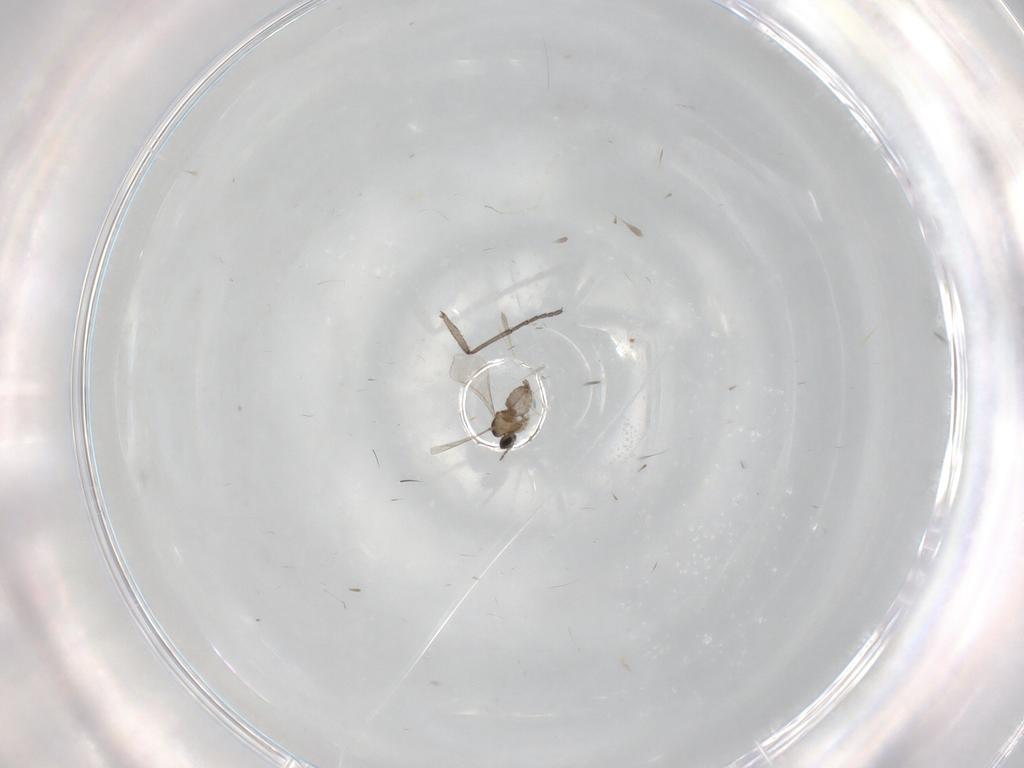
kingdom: Animalia
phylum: Arthropoda
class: Insecta
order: Diptera
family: Cecidomyiidae
